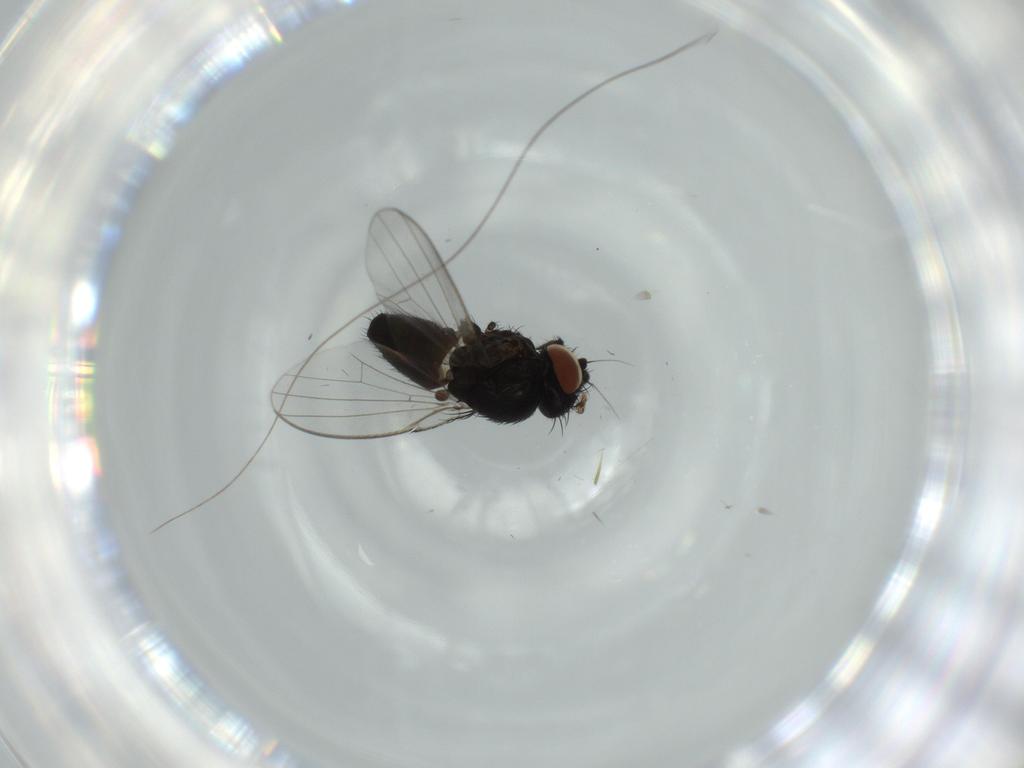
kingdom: Animalia
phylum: Arthropoda
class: Insecta
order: Diptera
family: Milichiidae
